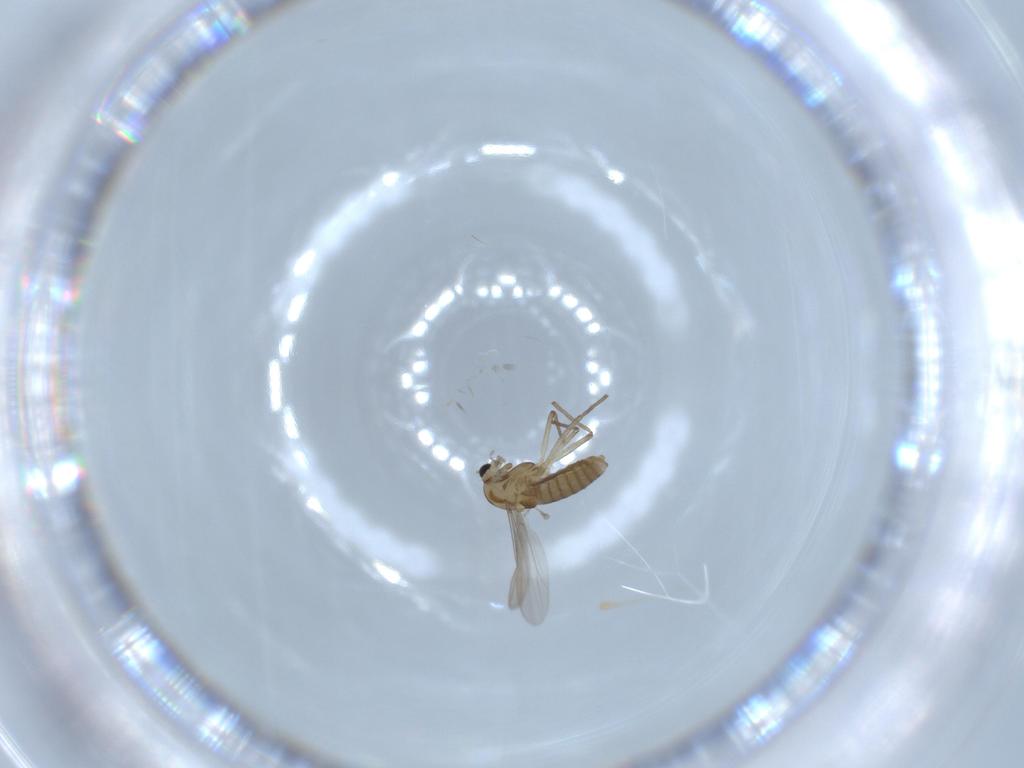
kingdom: Animalia
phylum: Arthropoda
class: Insecta
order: Diptera
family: Chironomidae
